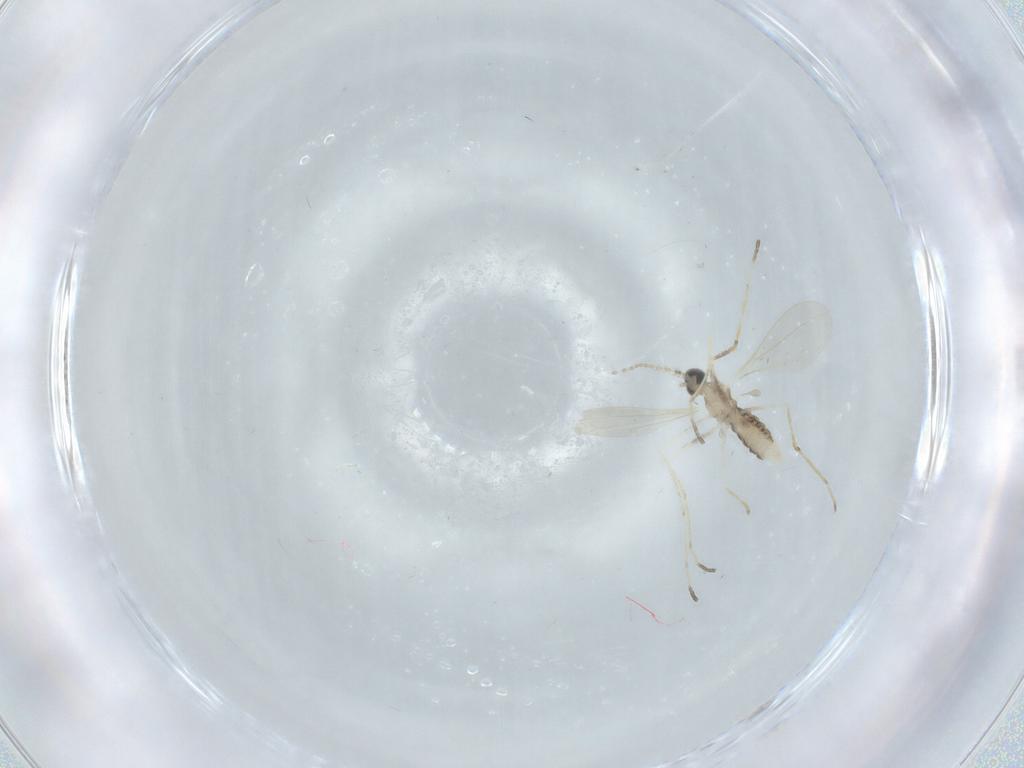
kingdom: Animalia
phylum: Arthropoda
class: Insecta
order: Diptera
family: Cecidomyiidae
